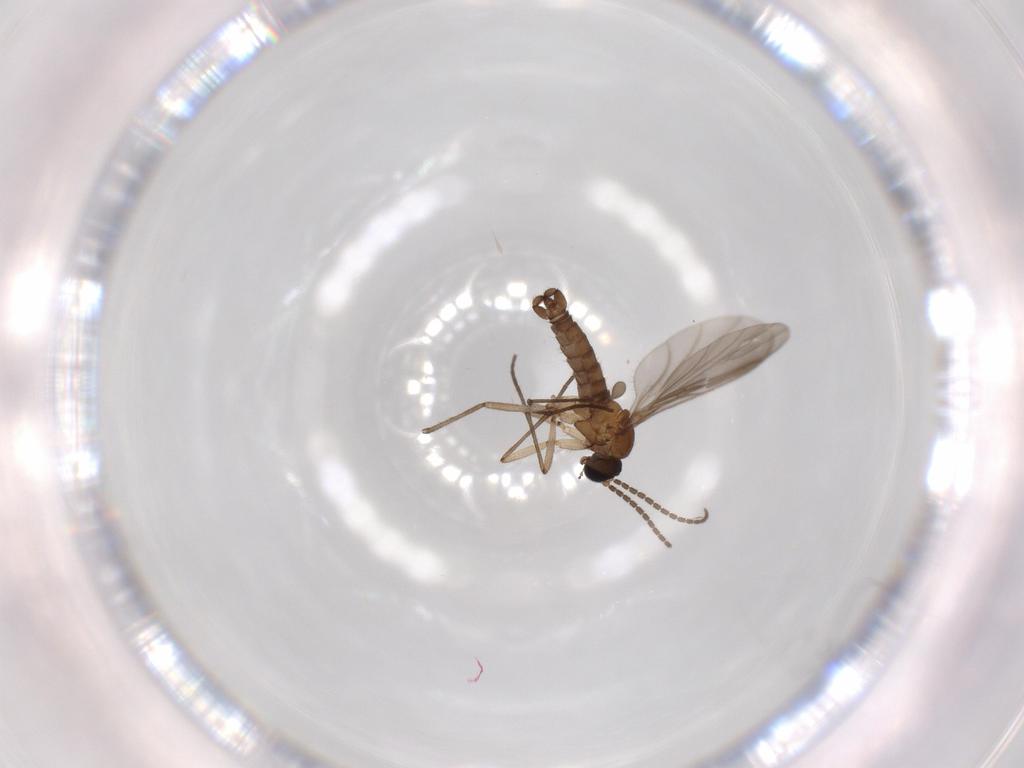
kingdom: Animalia
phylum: Arthropoda
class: Insecta
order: Diptera
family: Sciaridae
